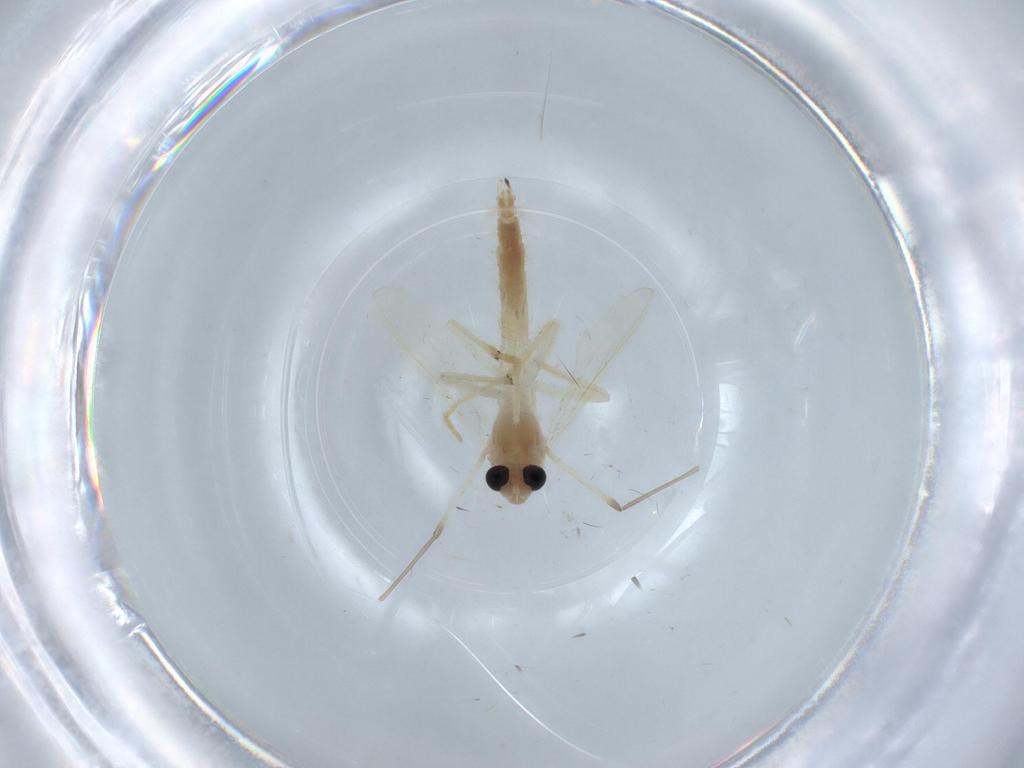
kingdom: Animalia
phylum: Arthropoda
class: Insecta
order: Diptera
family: Chironomidae
